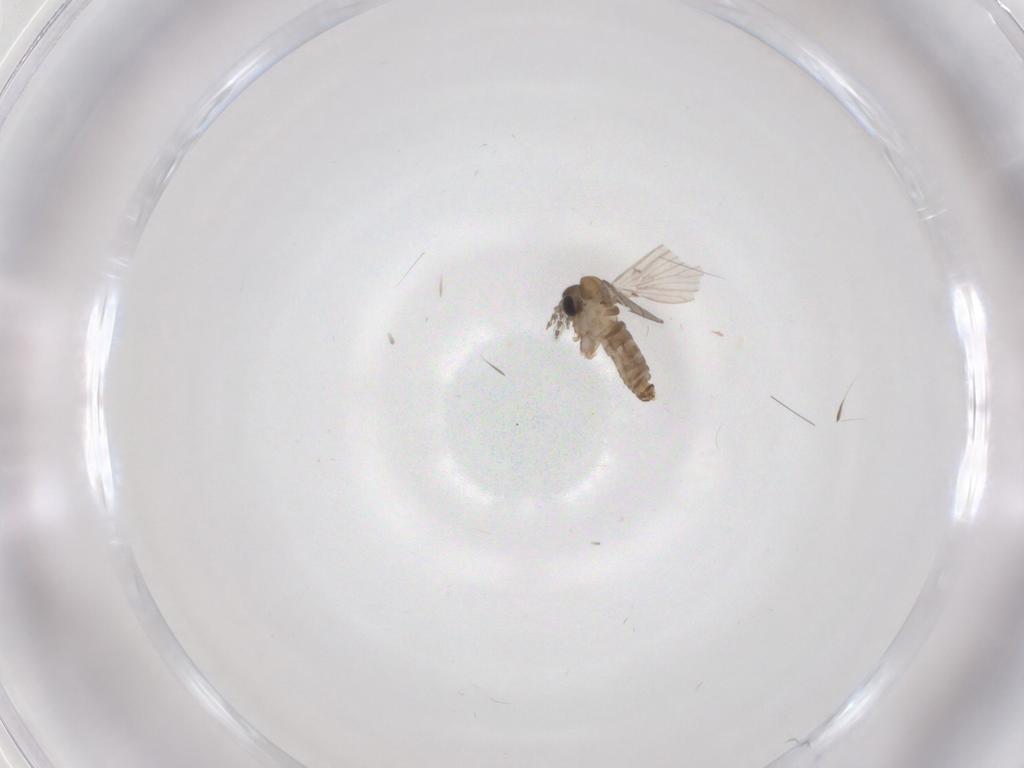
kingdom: Animalia
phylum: Arthropoda
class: Insecta
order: Diptera
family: Psychodidae
